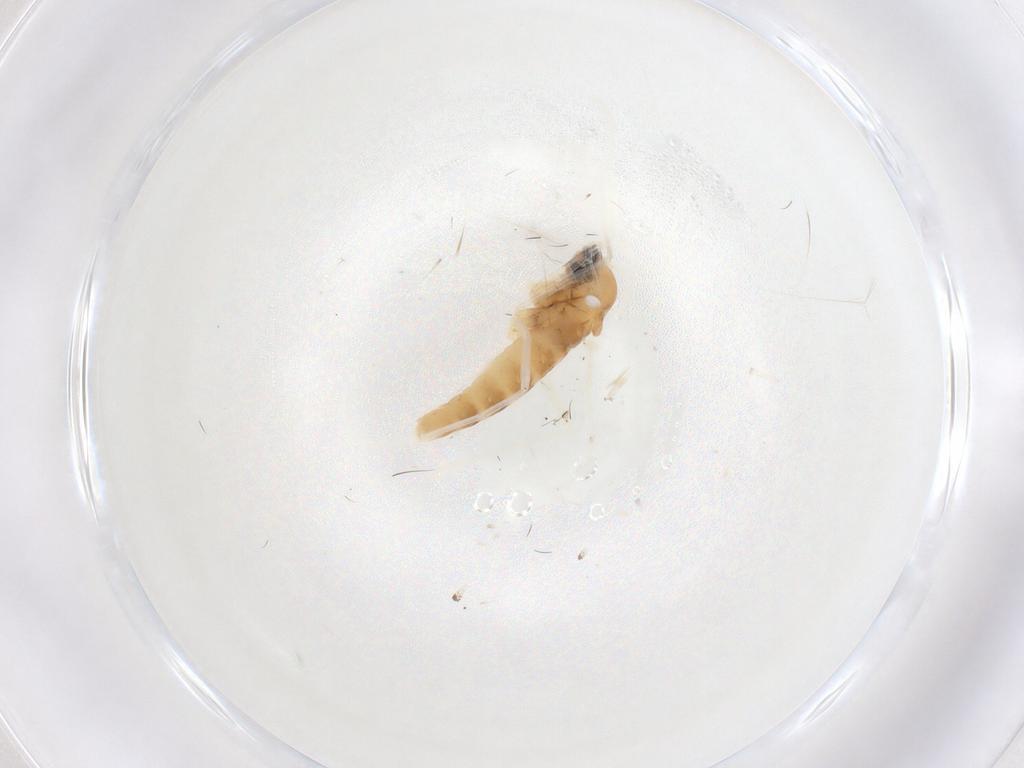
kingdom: Animalia
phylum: Arthropoda
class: Insecta
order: Diptera
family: Cecidomyiidae
